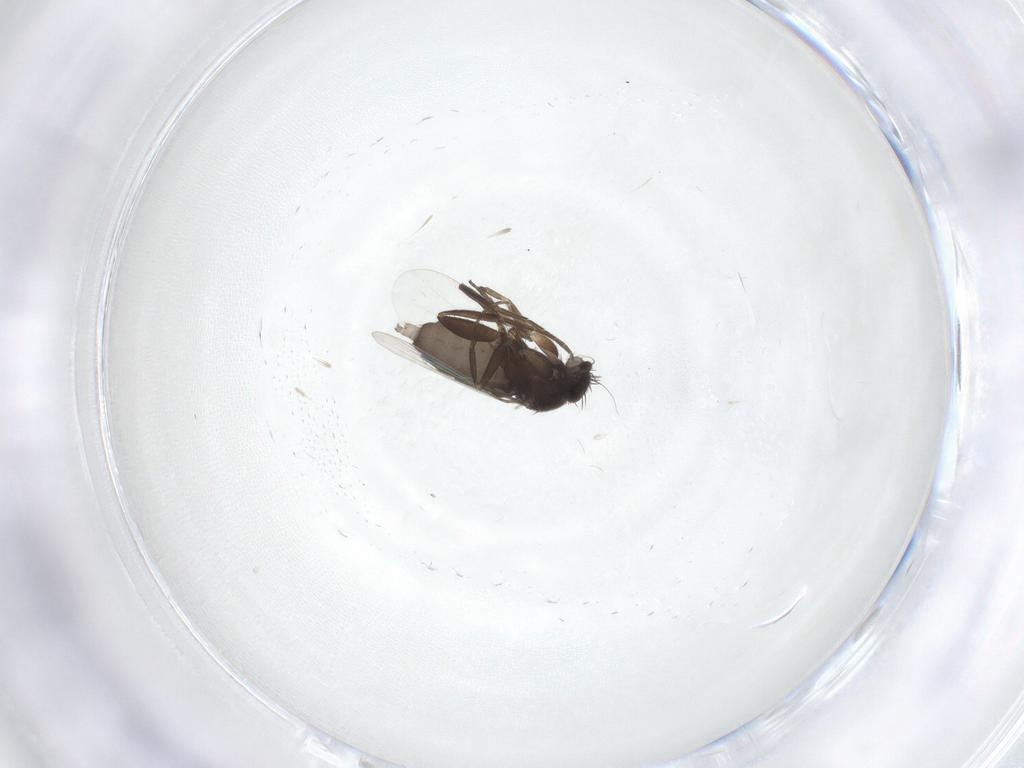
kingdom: Animalia
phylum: Arthropoda
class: Insecta
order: Diptera
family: Phoridae
